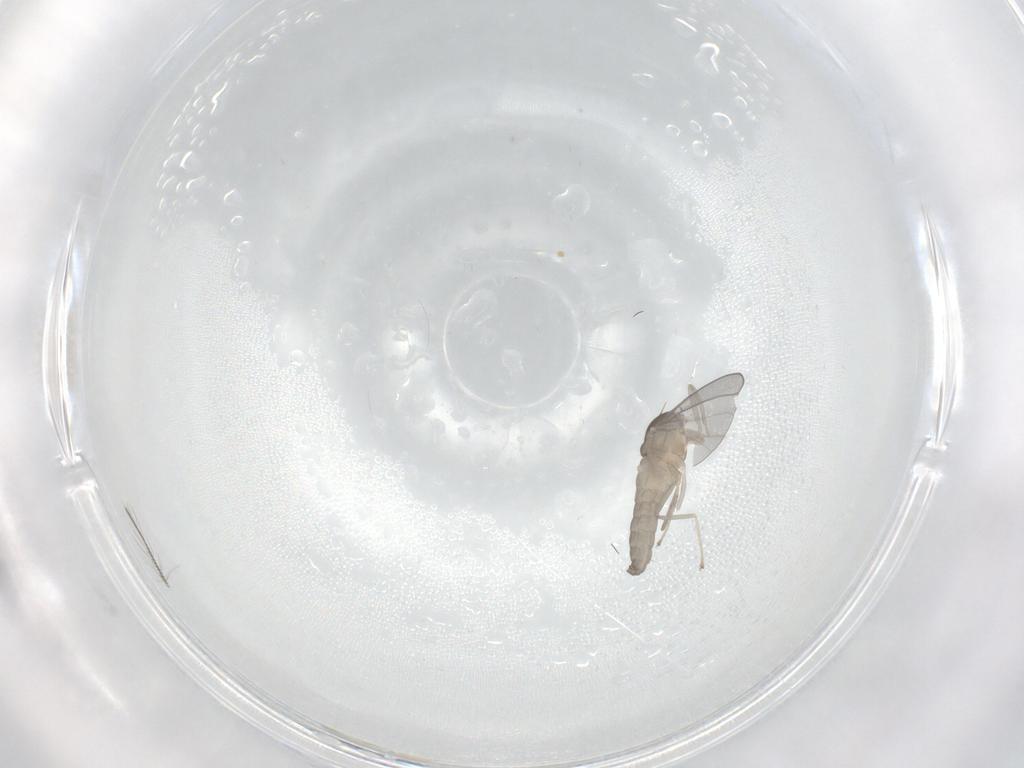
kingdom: Animalia
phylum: Arthropoda
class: Insecta
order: Diptera
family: Cecidomyiidae
